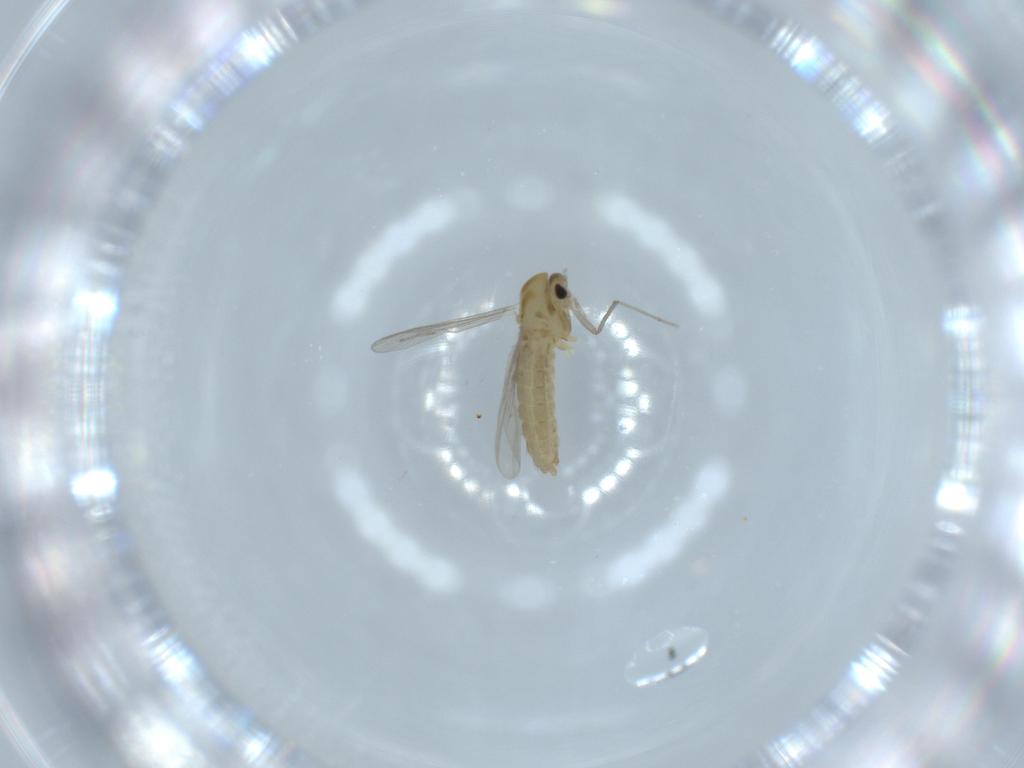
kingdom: Animalia
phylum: Arthropoda
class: Insecta
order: Diptera
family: Chironomidae
